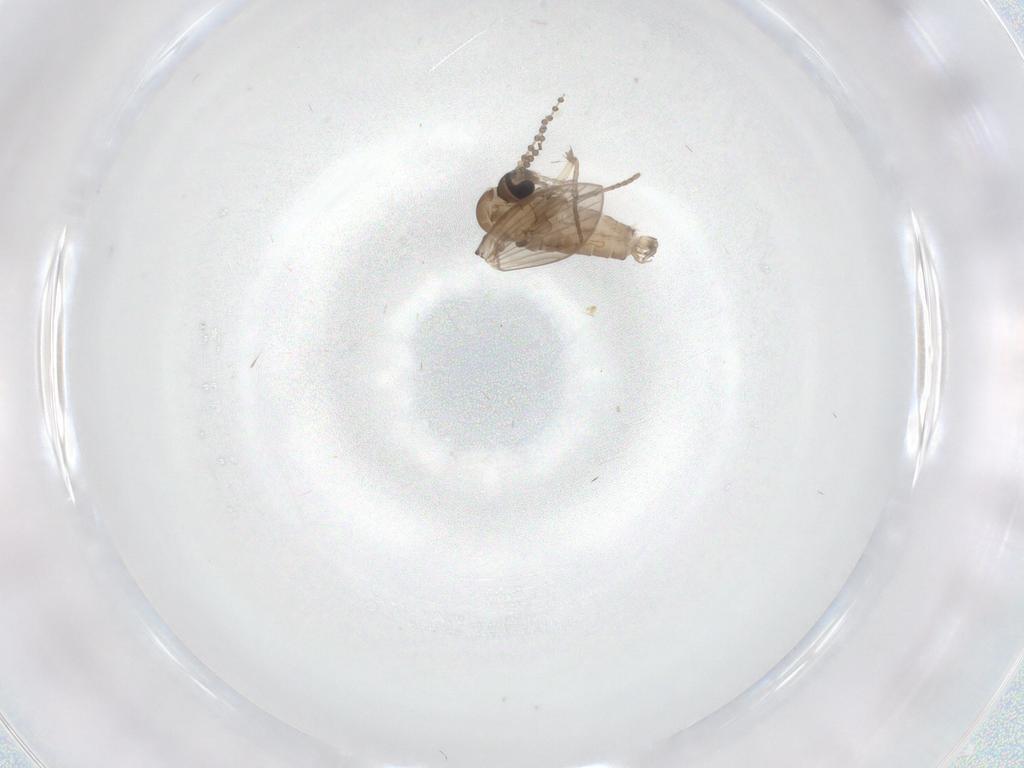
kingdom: Animalia
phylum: Arthropoda
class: Insecta
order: Diptera
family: Psychodidae
